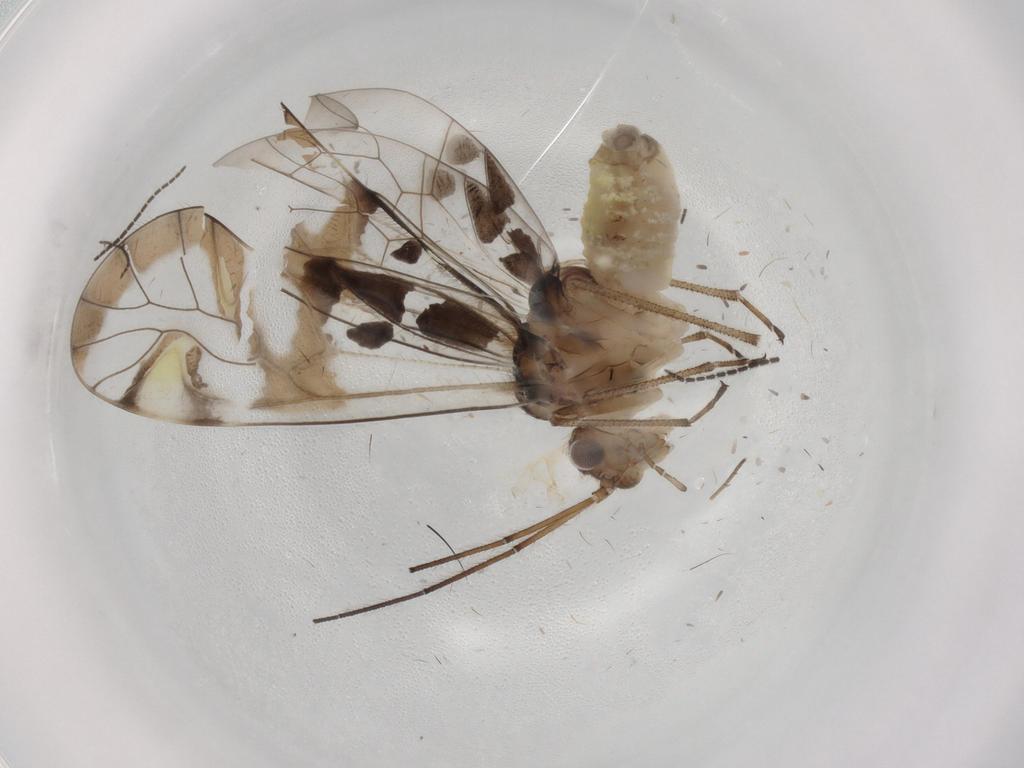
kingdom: Animalia
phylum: Arthropoda
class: Insecta
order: Psocodea
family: Amphipsocidae
